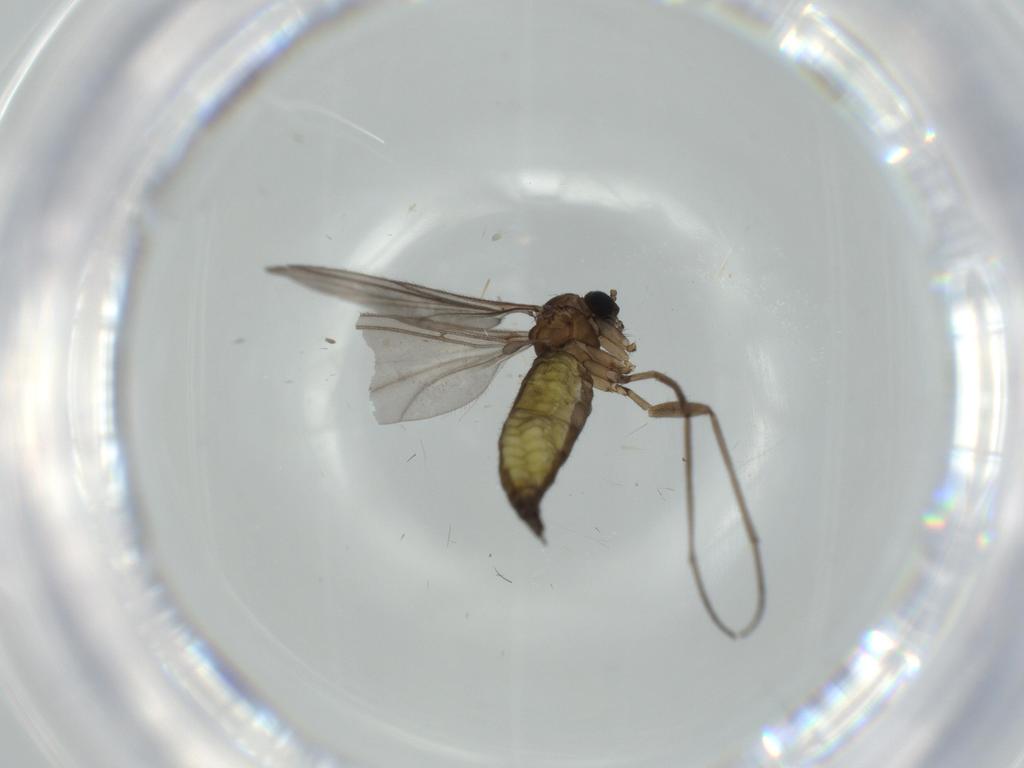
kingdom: Animalia
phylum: Arthropoda
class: Insecta
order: Diptera
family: Sciaridae
